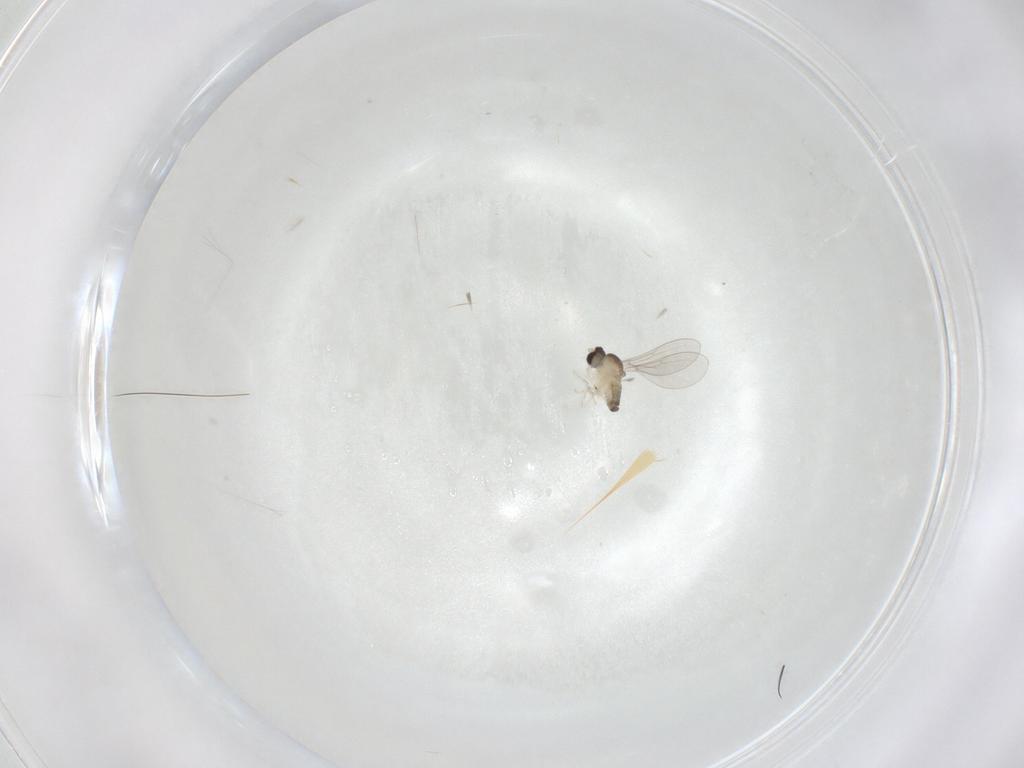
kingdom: Animalia
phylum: Arthropoda
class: Insecta
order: Diptera
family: Cecidomyiidae
